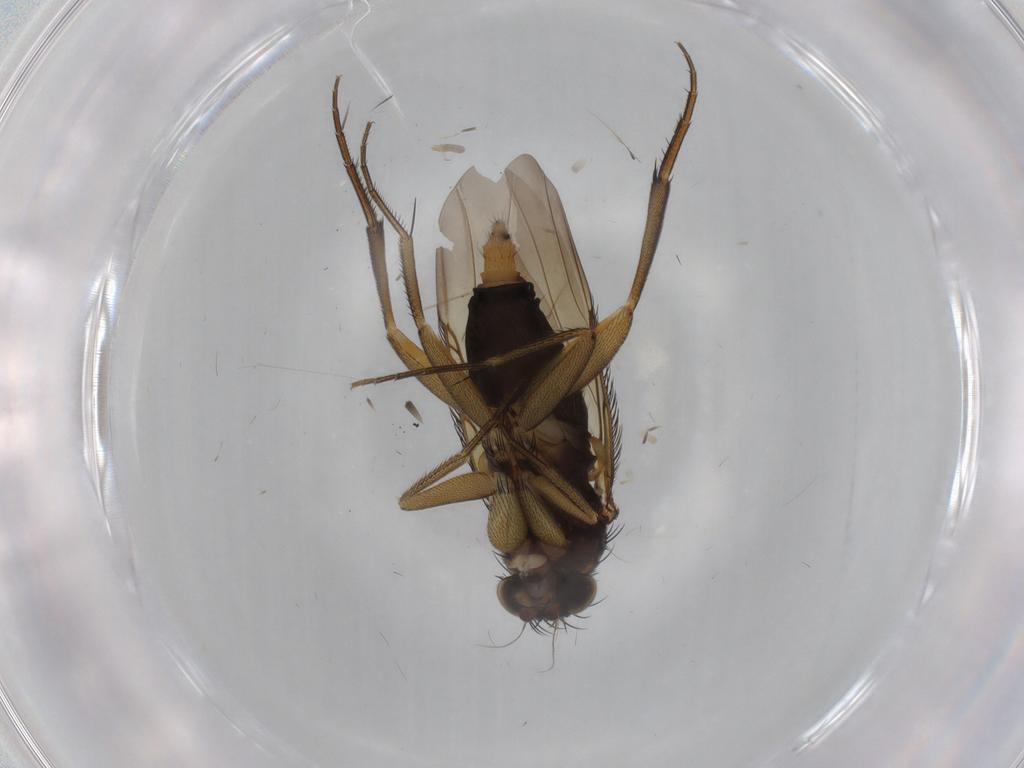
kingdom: Animalia
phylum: Arthropoda
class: Insecta
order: Diptera
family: Phoridae
